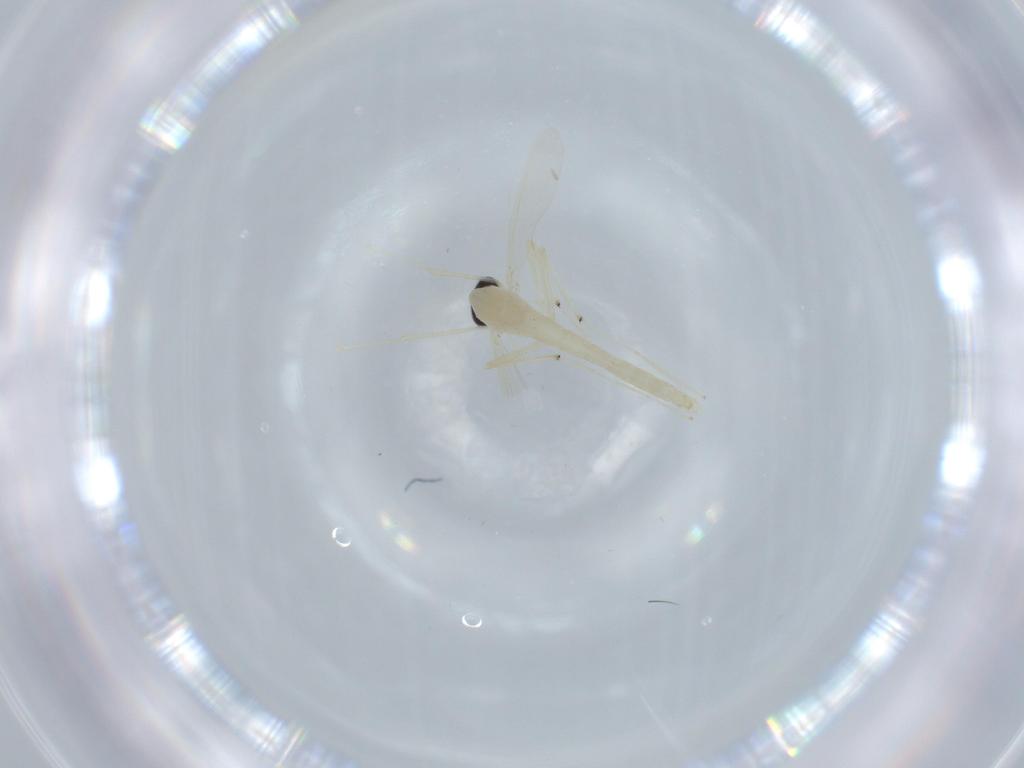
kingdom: Animalia
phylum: Arthropoda
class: Insecta
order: Diptera
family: Chironomidae
